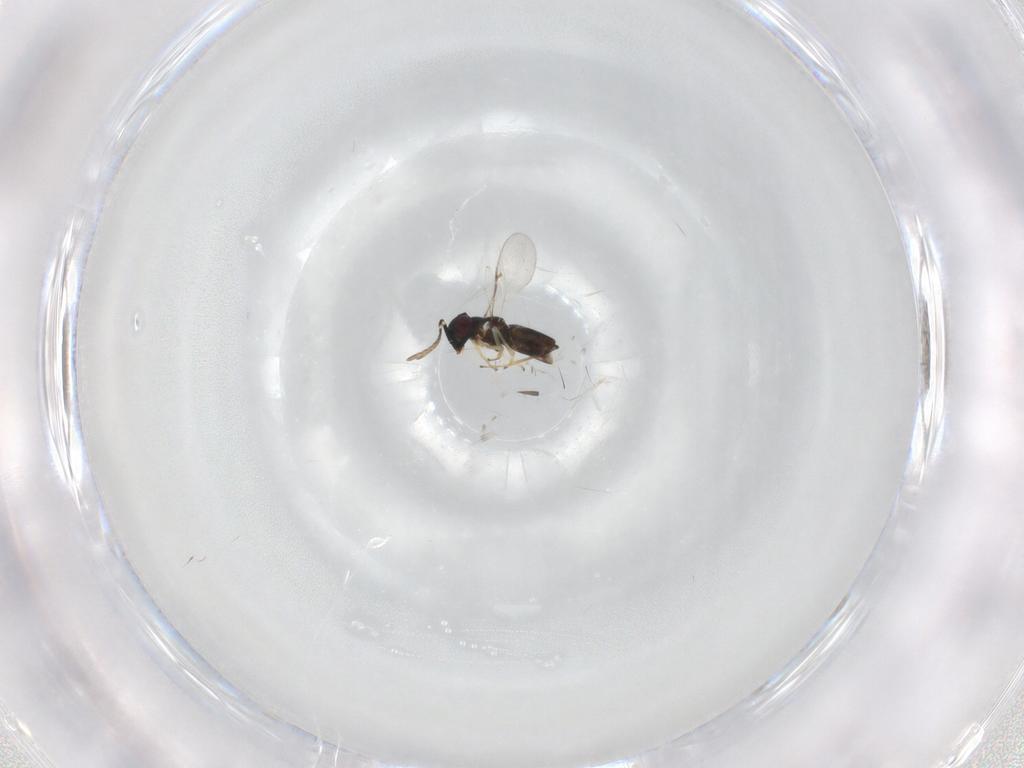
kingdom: Animalia
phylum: Arthropoda
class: Insecta
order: Hymenoptera
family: Encyrtidae
